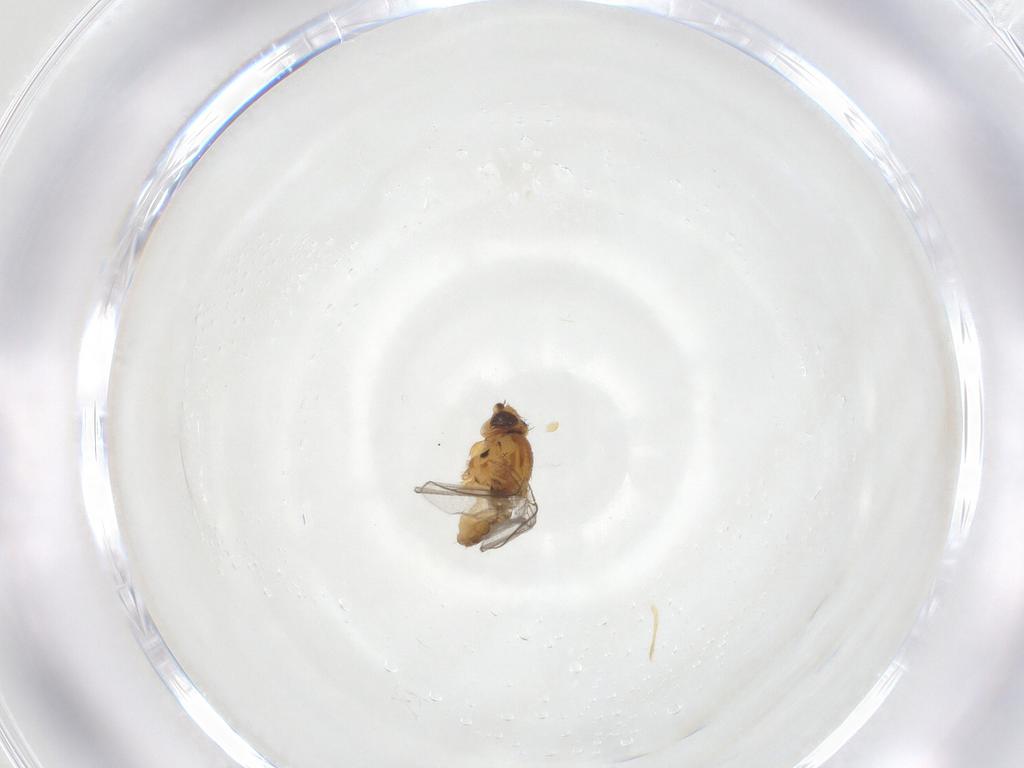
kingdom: Animalia
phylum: Arthropoda
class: Insecta
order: Diptera
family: Chloropidae
